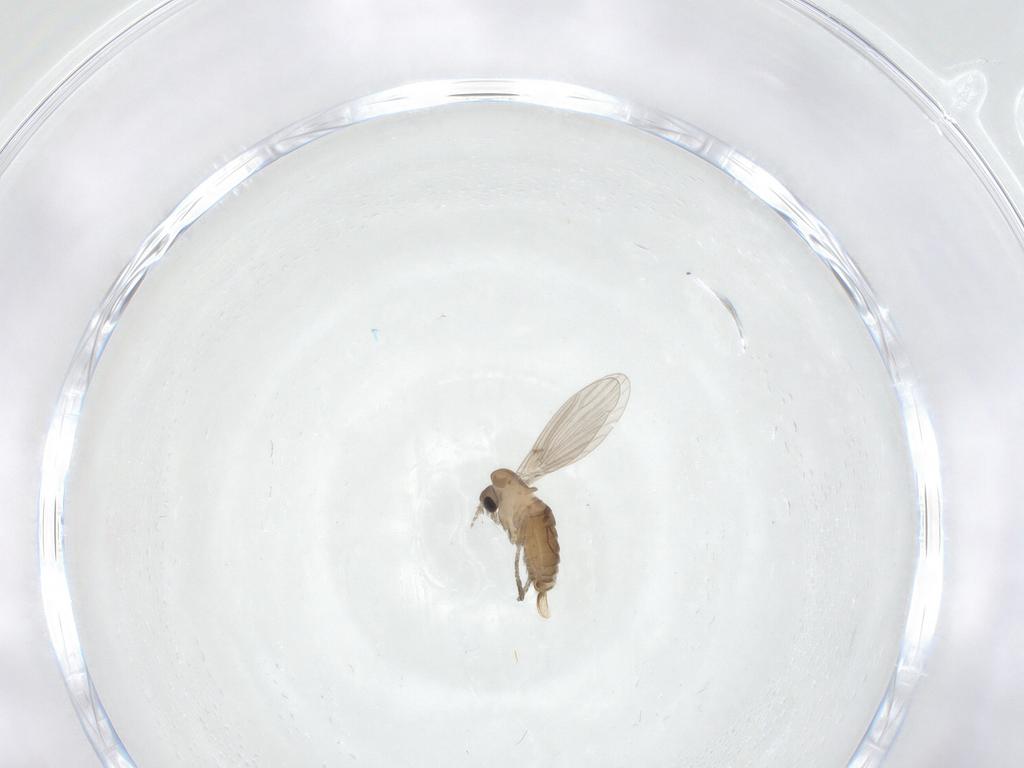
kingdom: Animalia
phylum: Arthropoda
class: Insecta
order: Diptera
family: Psychodidae
